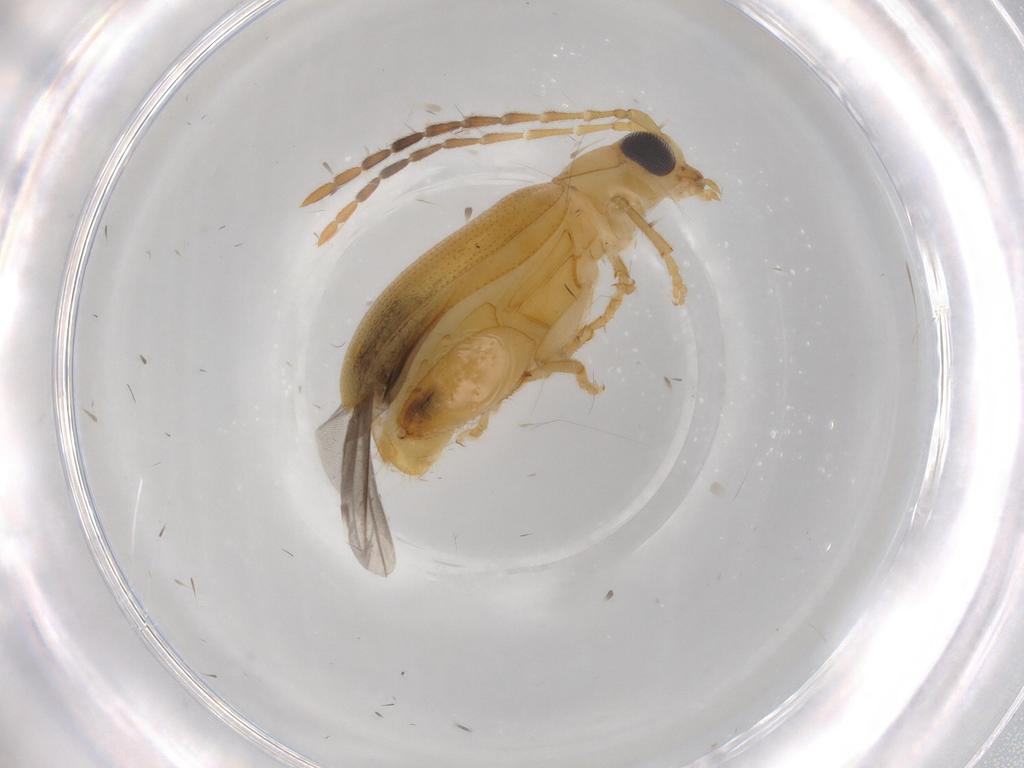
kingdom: Animalia
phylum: Arthropoda
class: Insecta
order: Coleoptera
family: Chrysomelidae
